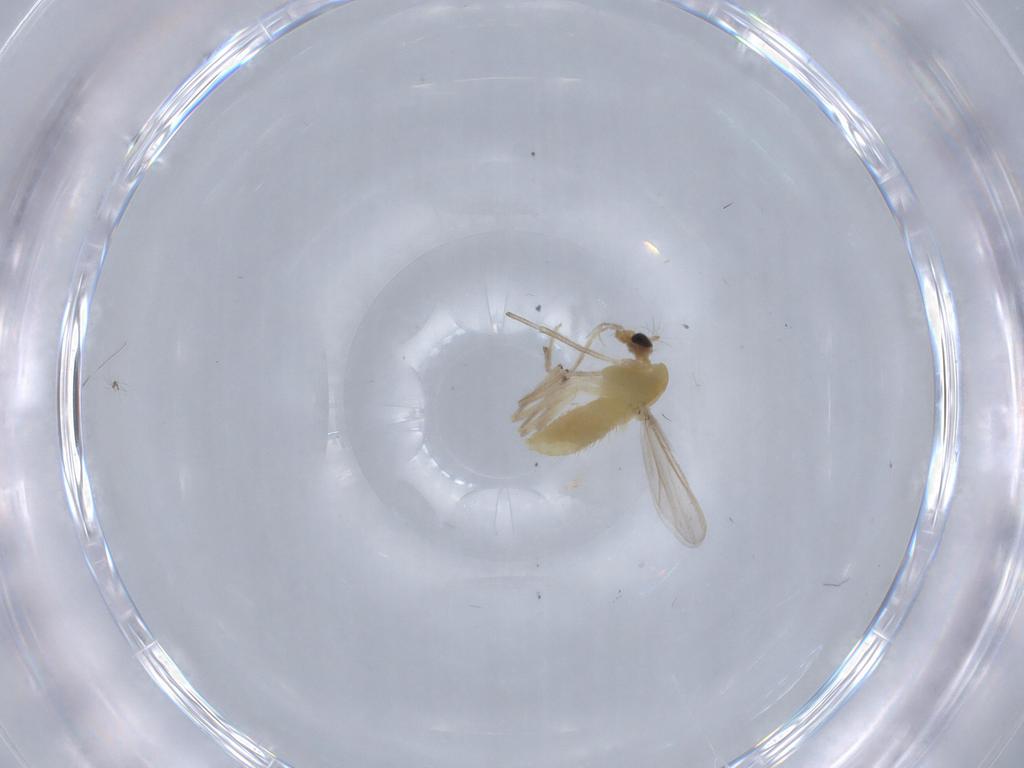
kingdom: Animalia
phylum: Arthropoda
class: Insecta
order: Diptera
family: Chironomidae
